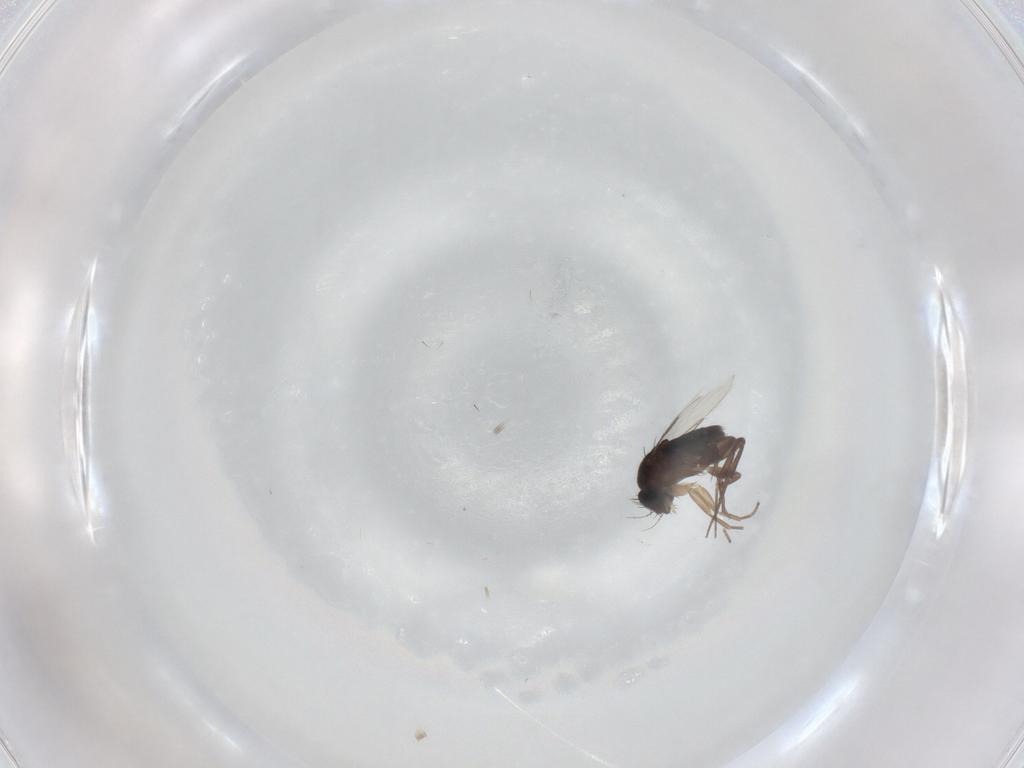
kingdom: Animalia
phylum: Arthropoda
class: Insecta
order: Diptera
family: Phoridae
